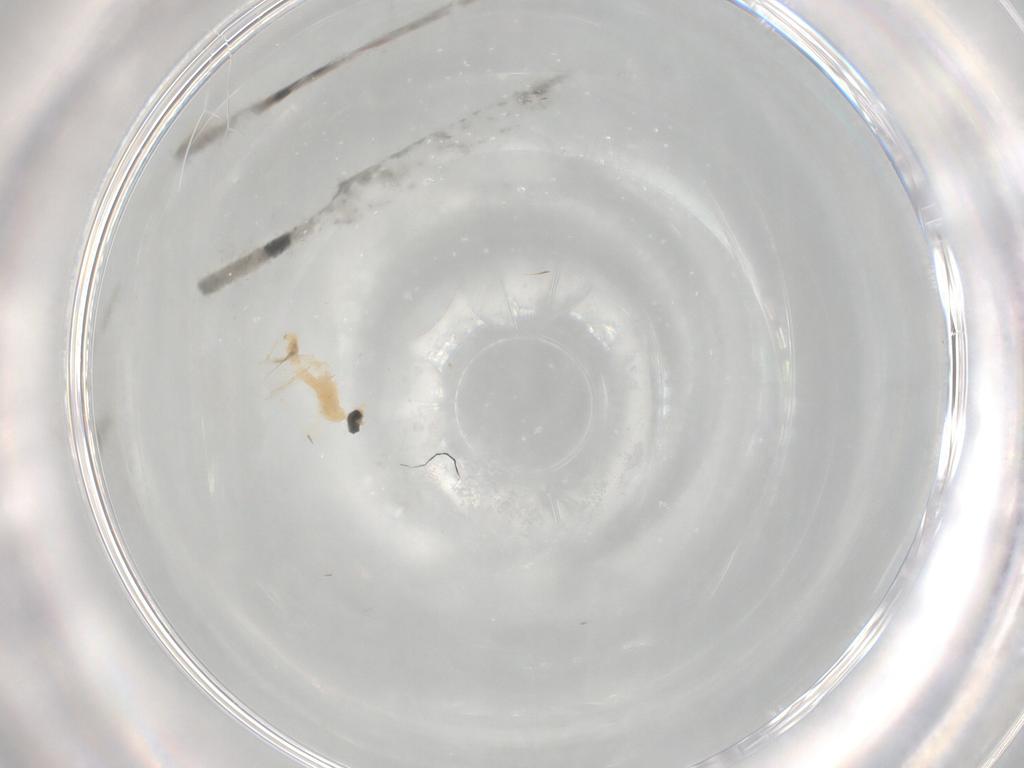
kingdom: Animalia
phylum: Arthropoda
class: Insecta
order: Diptera
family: Cecidomyiidae
